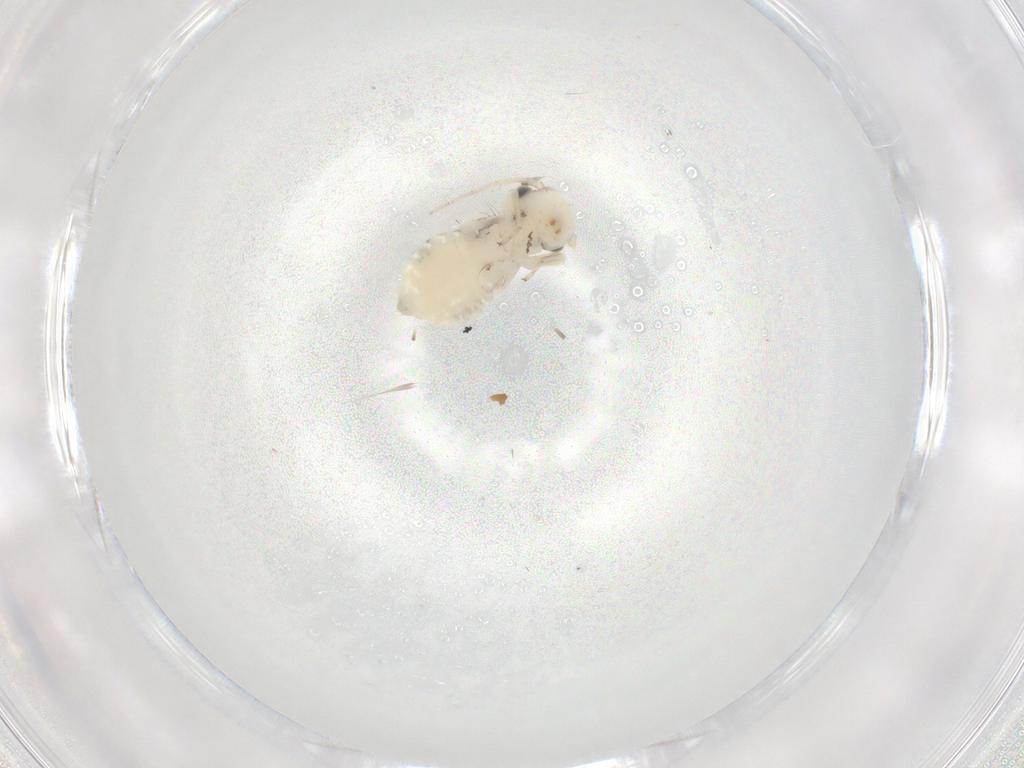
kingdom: Animalia
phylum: Arthropoda
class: Insecta
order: Psocodea
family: Myopsocidae
